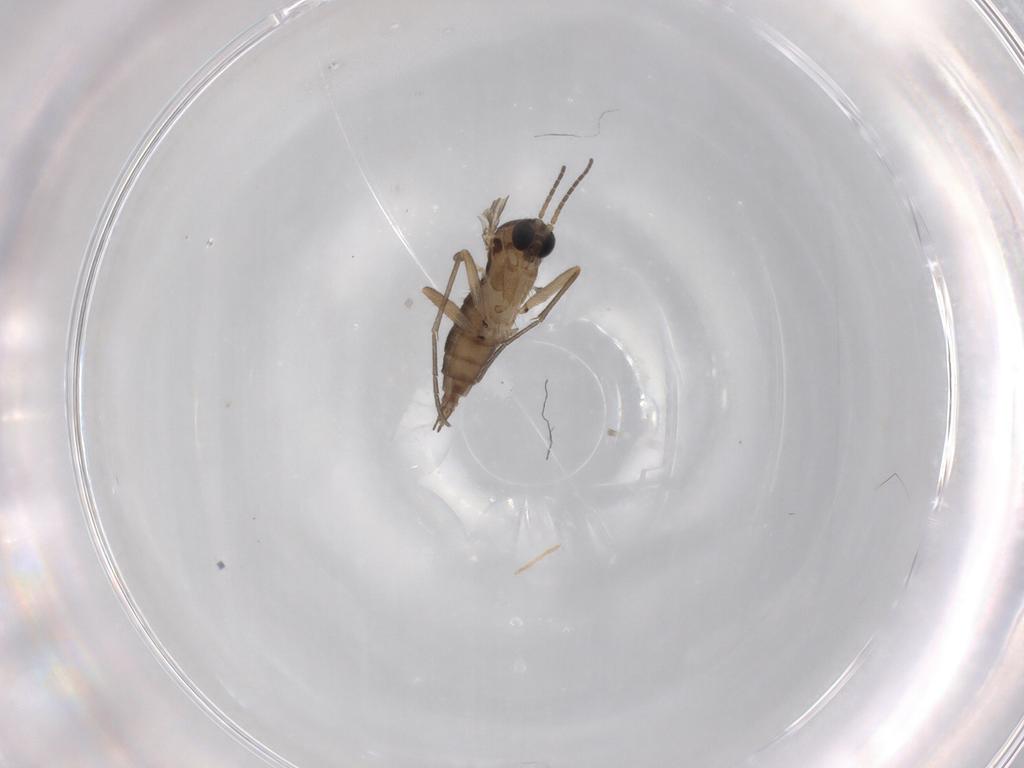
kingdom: Animalia
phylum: Arthropoda
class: Insecta
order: Diptera
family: Sciaridae
